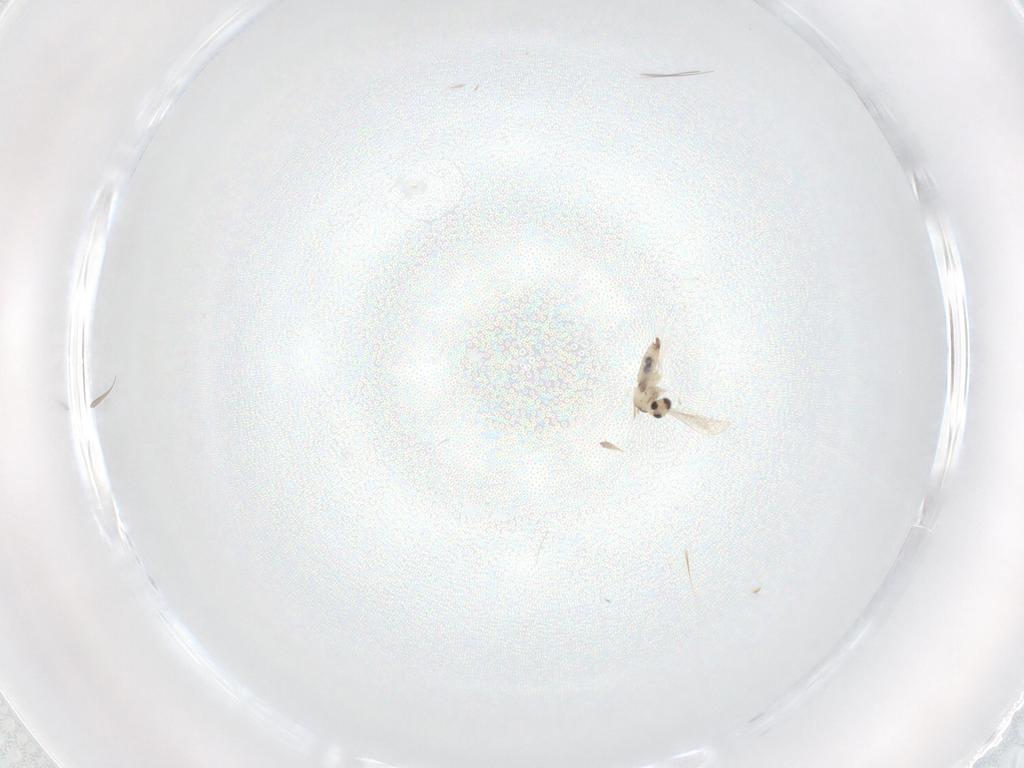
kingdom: Animalia
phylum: Arthropoda
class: Insecta
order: Diptera
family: Cecidomyiidae
